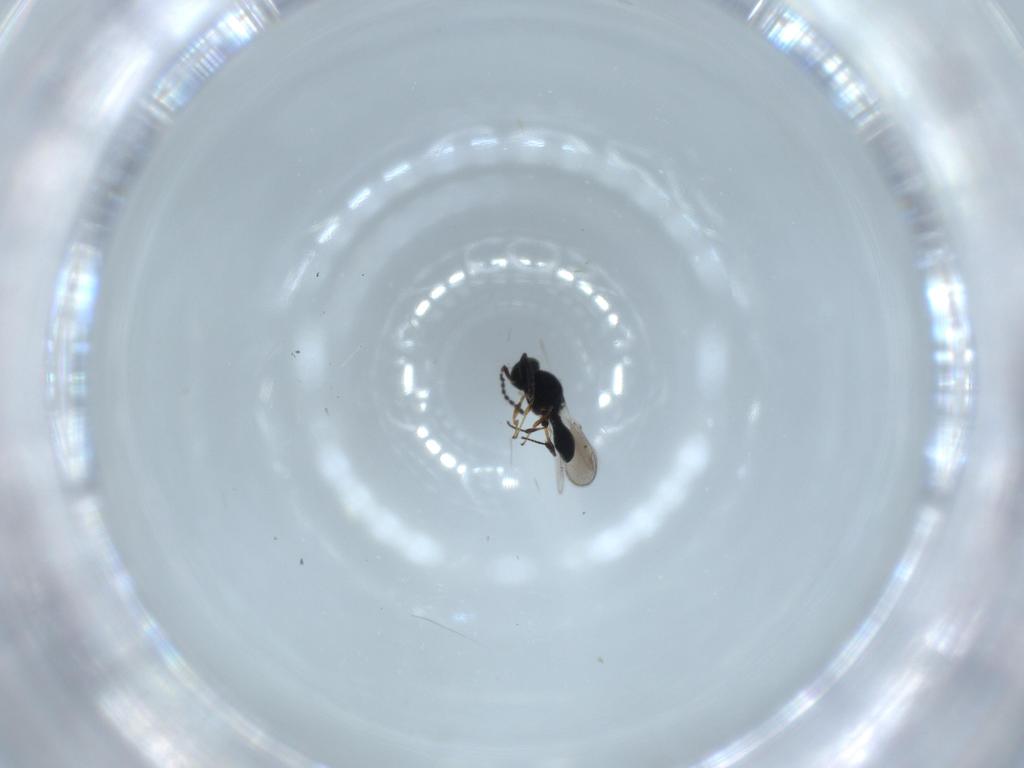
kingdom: Animalia
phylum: Arthropoda
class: Insecta
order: Hymenoptera
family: Platygastridae
